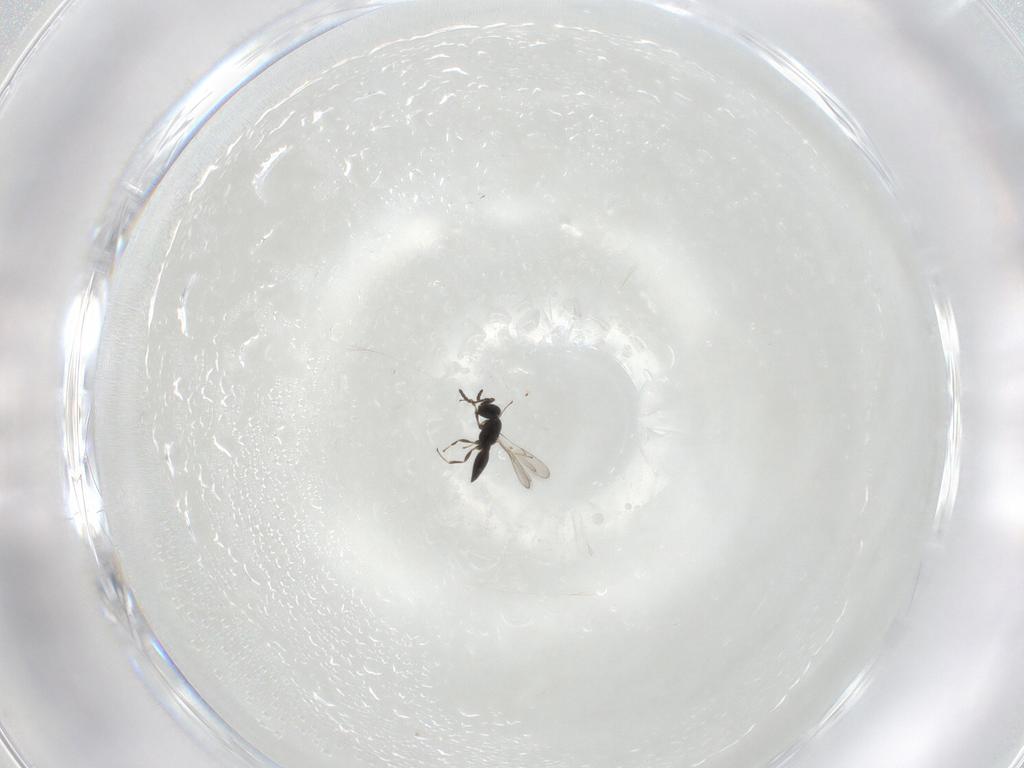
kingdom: Animalia
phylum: Arthropoda
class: Insecta
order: Hymenoptera
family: Scelionidae
